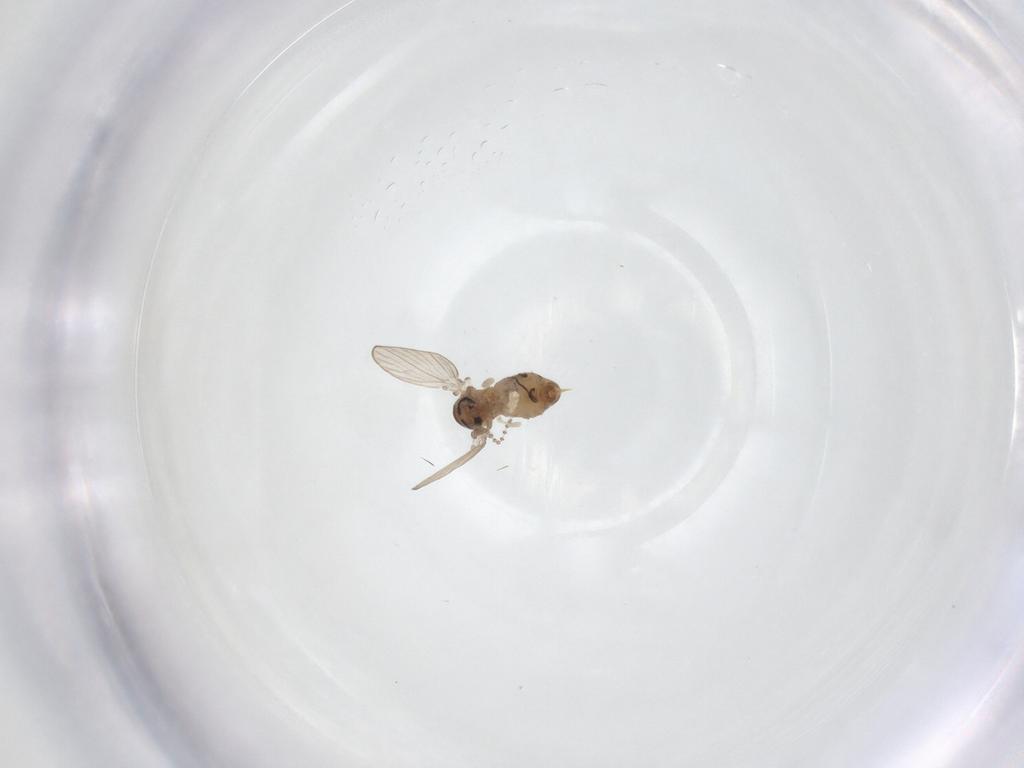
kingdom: Animalia
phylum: Arthropoda
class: Insecta
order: Diptera
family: Psychodidae
